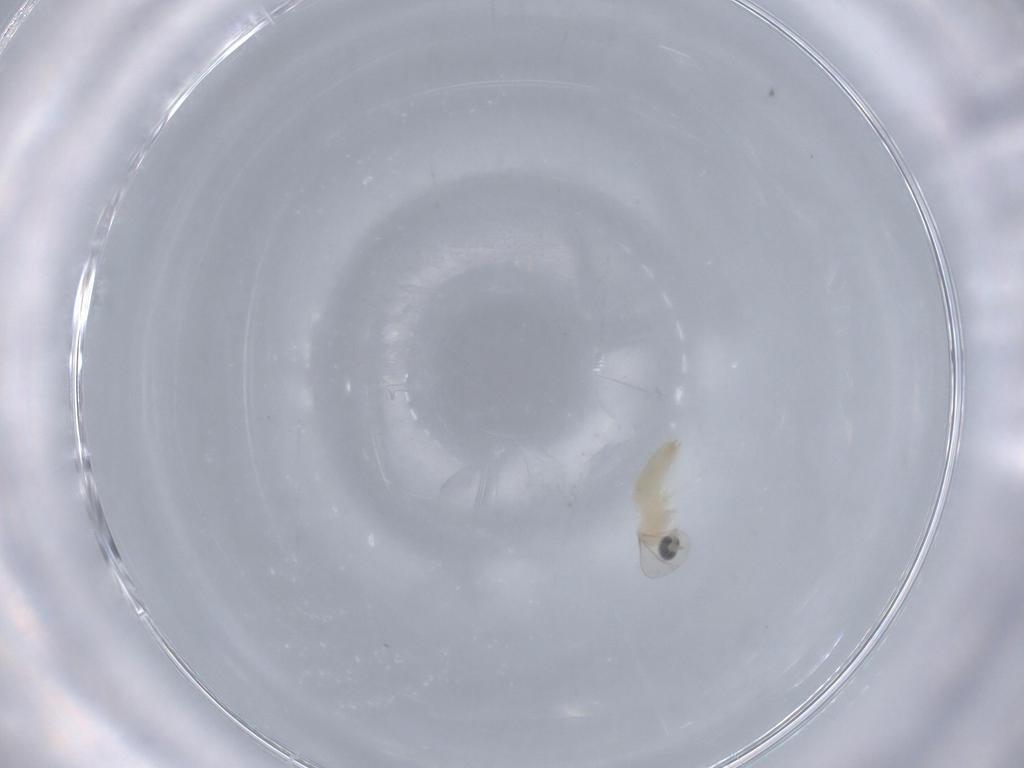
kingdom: Animalia
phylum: Arthropoda
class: Insecta
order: Diptera
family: Cecidomyiidae
